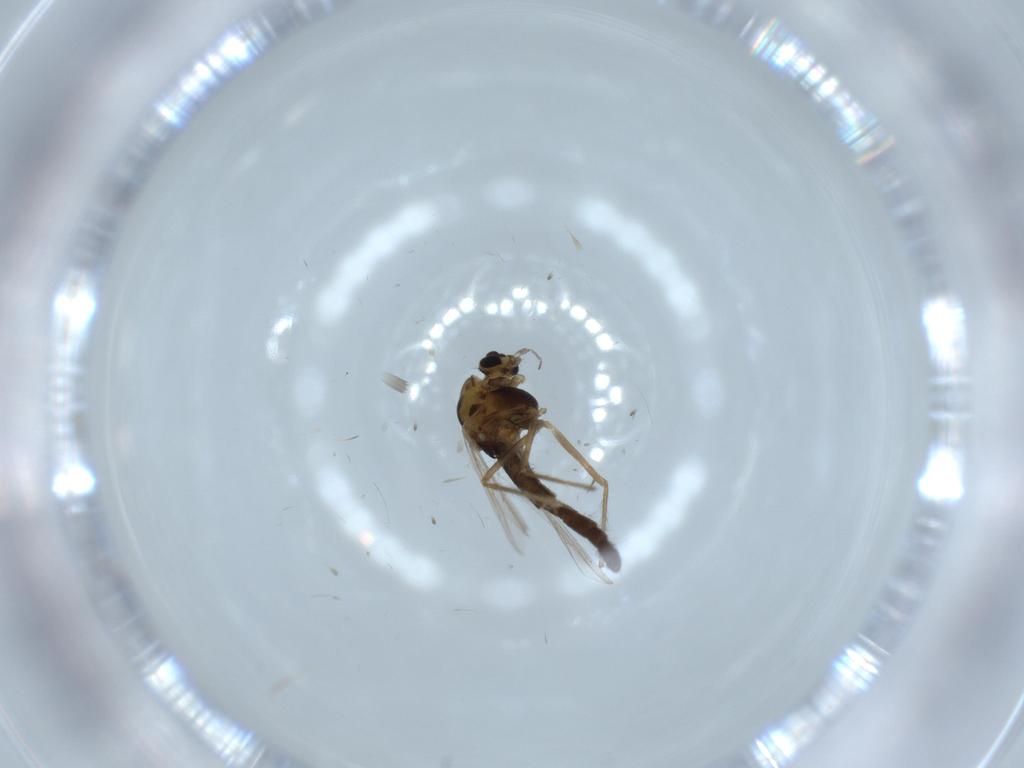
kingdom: Animalia
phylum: Arthropoda
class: Insecta
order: Diptera
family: Chironomidae
